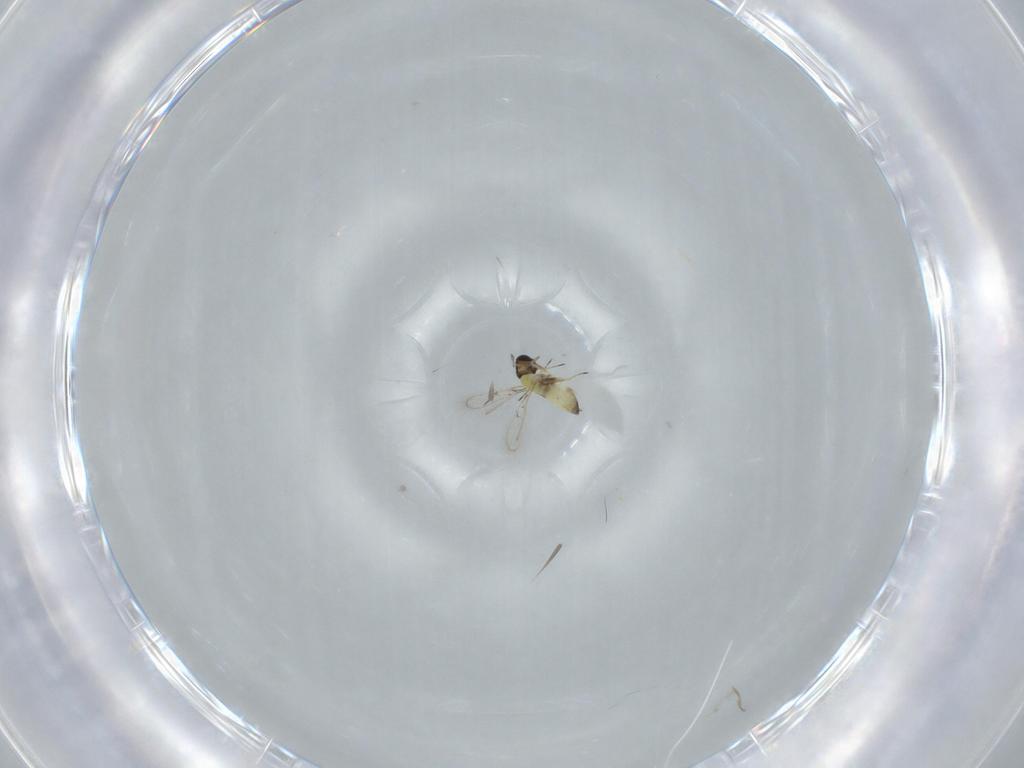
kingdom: Animalia
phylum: Arthropoda
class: Insecta
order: Hymenoptera
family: Trichogrammatidae
